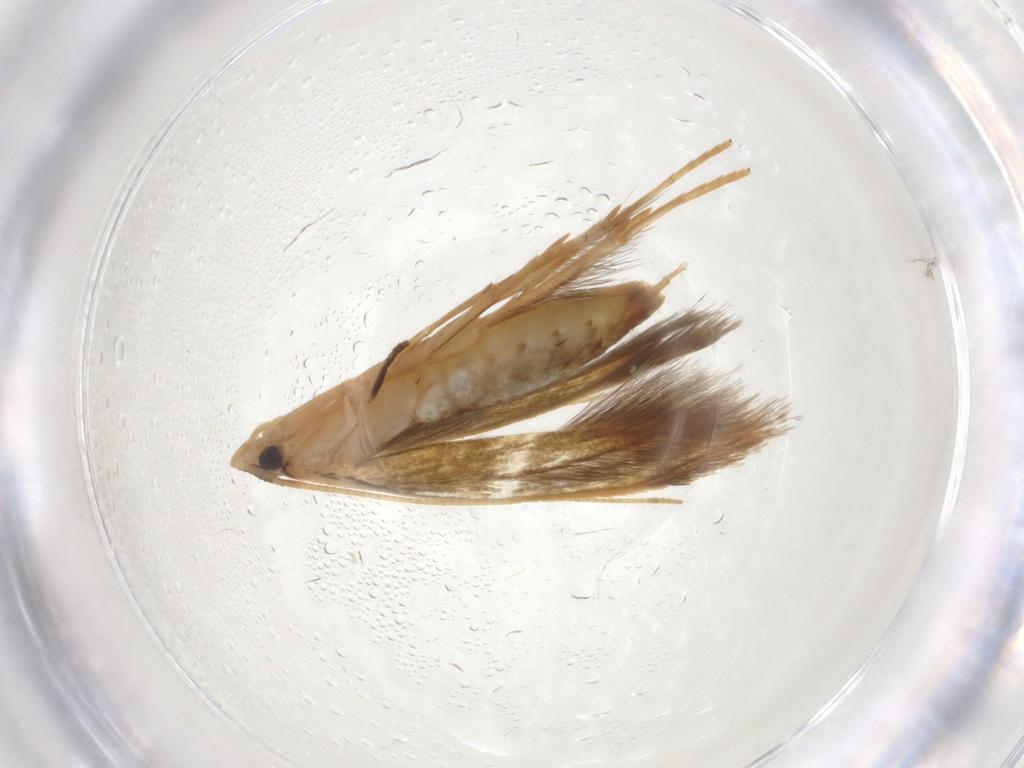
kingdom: Animalia
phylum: Arthropoda
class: Insecta
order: Lepidoptera
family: Tineidae
